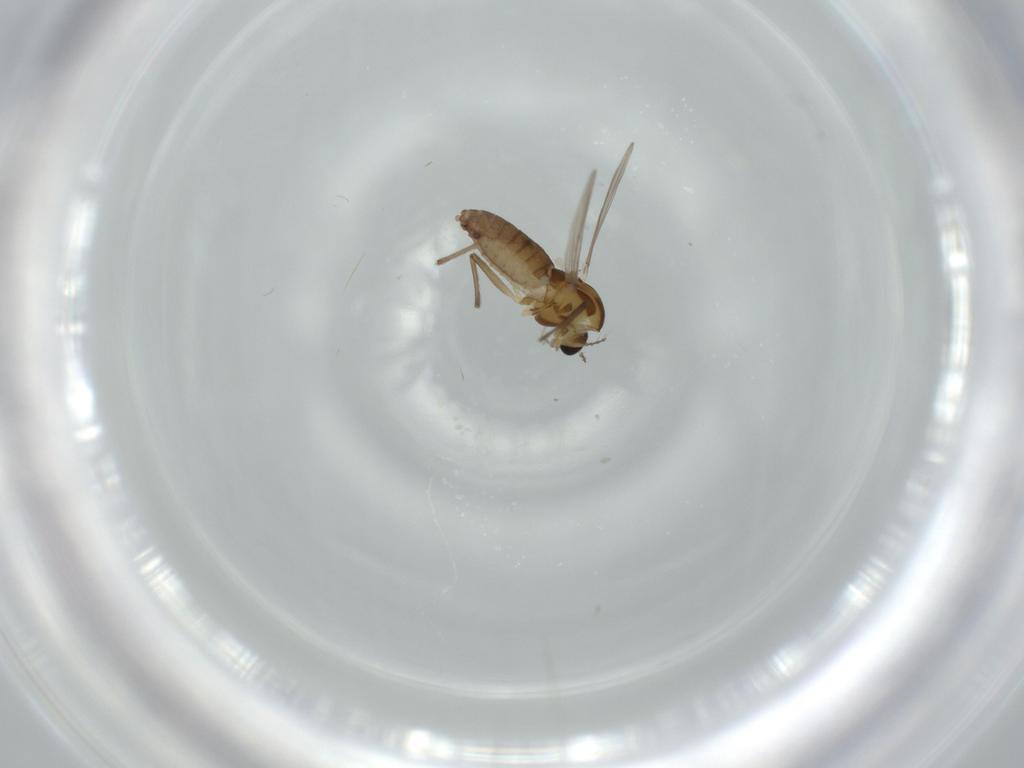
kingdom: Animalia
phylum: Arthropoda
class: Insecta
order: Diptera
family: Chironomidae
